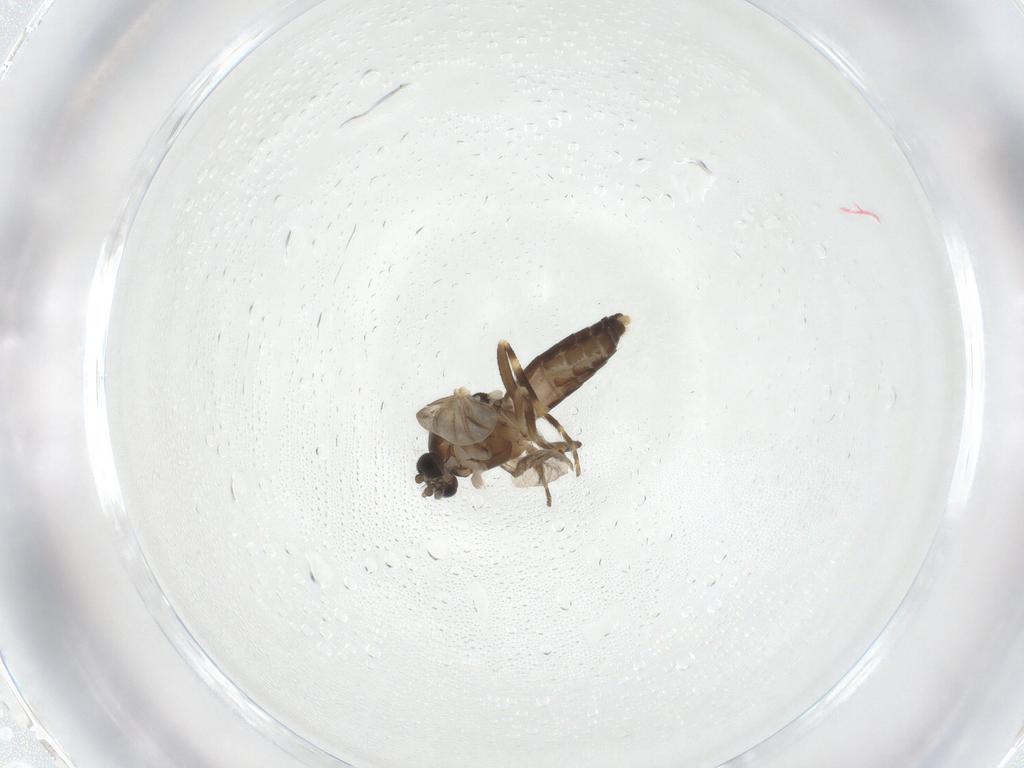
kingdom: Animalia
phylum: Arthropoda
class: Insecta
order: Diptera
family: Ceratopogonidae
